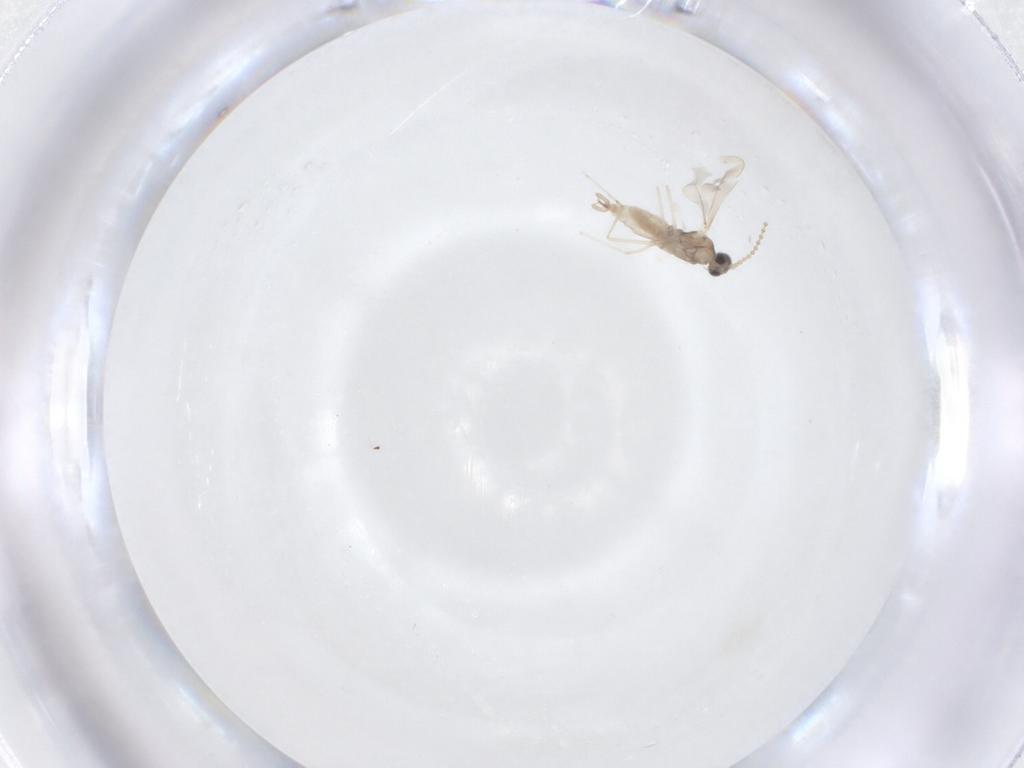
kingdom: Animalia
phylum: Arthropoda
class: Insecta
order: Diptera
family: Cecidomyiidae
